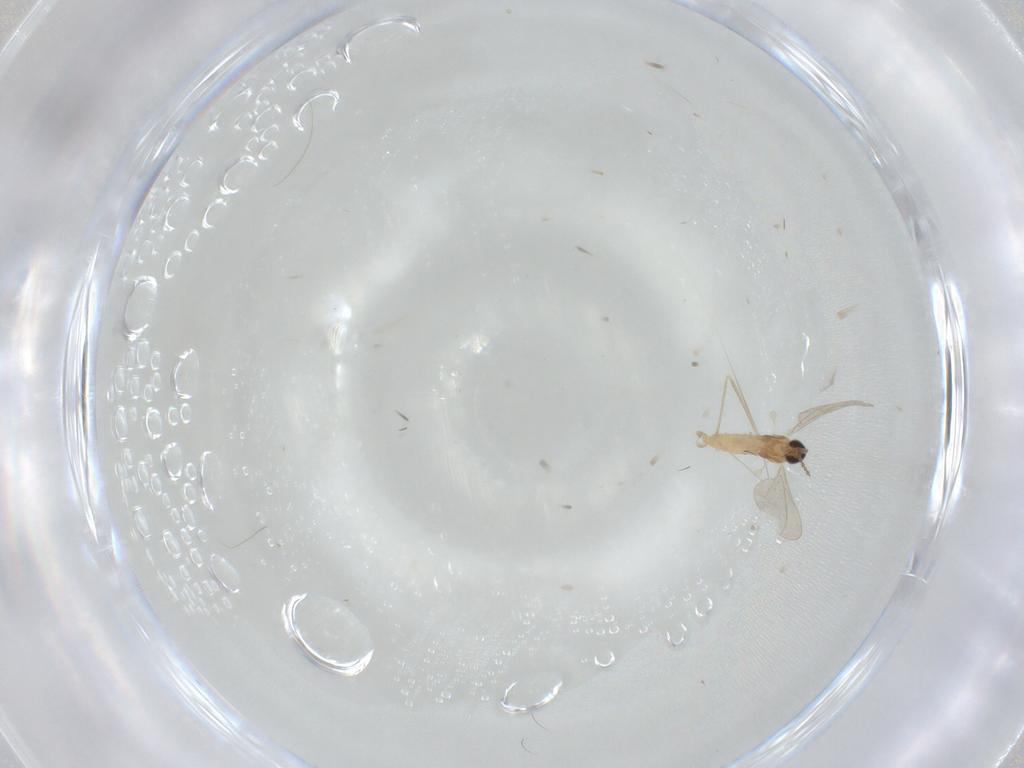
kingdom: Animalia
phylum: Arthropoda
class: Insecta
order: Diptera
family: Cecidomyiidae
